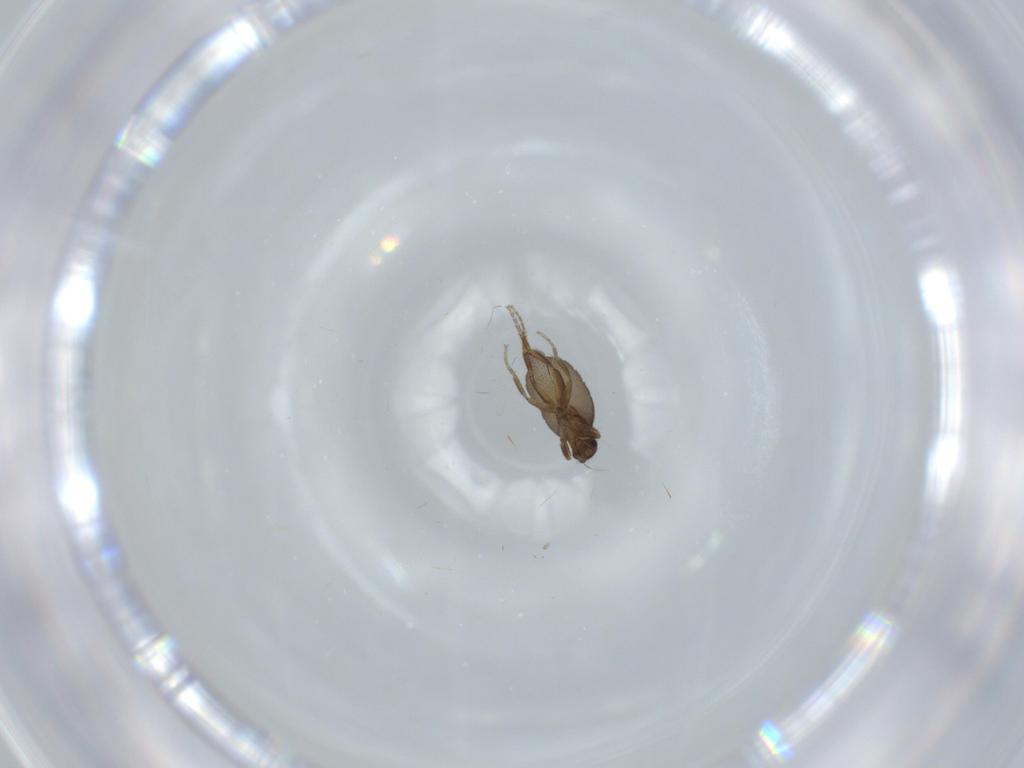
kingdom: Animalia
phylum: Arthropoda
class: Insecta
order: Diptera
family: Phoridae
